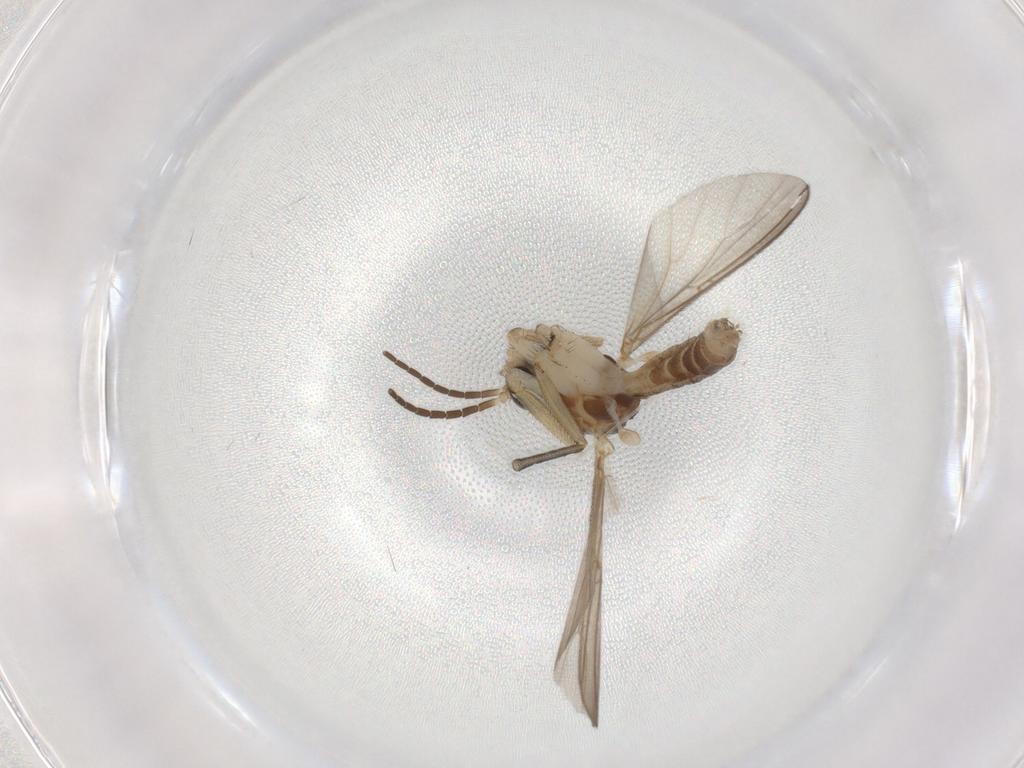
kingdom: Animalia
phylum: Arthropoda
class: Insecta
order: Diptera
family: Mycetophilidae
